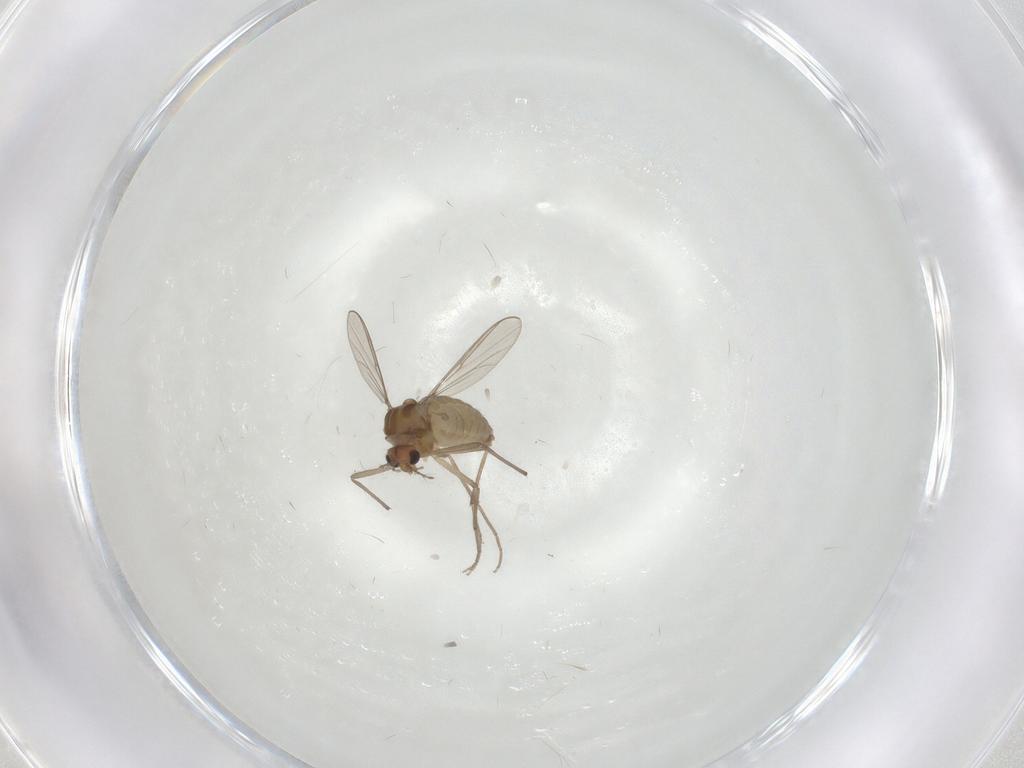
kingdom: Animalia
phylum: Arthropoda
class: Insecta
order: Diptera
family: Chironomidae
